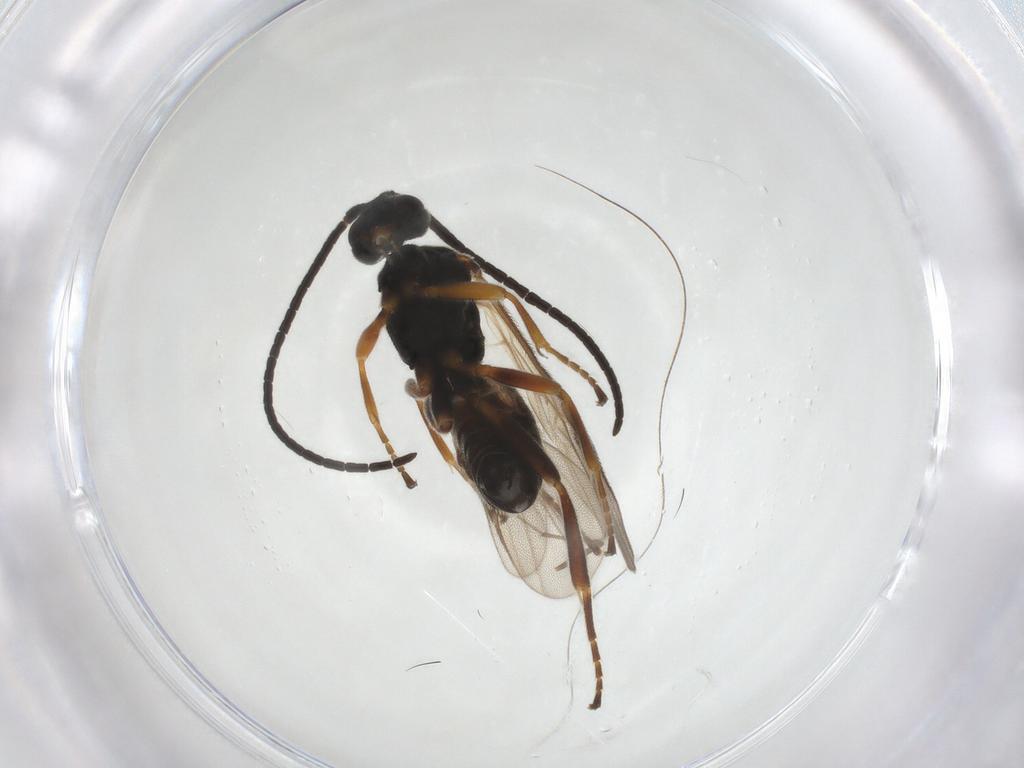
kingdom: Animalia
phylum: Arthropoda
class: Insecta
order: Hymenoptera
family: Braconidae
